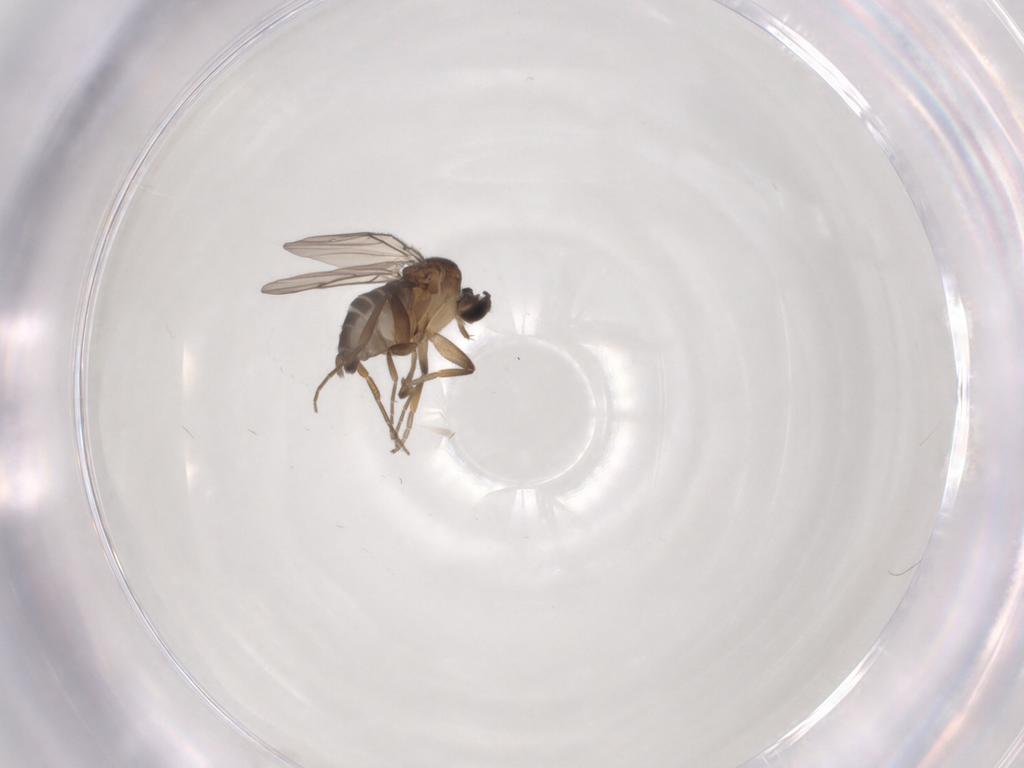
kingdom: Animalia
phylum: Arthropoda
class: Insecta
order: Diptera
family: Phoridae
